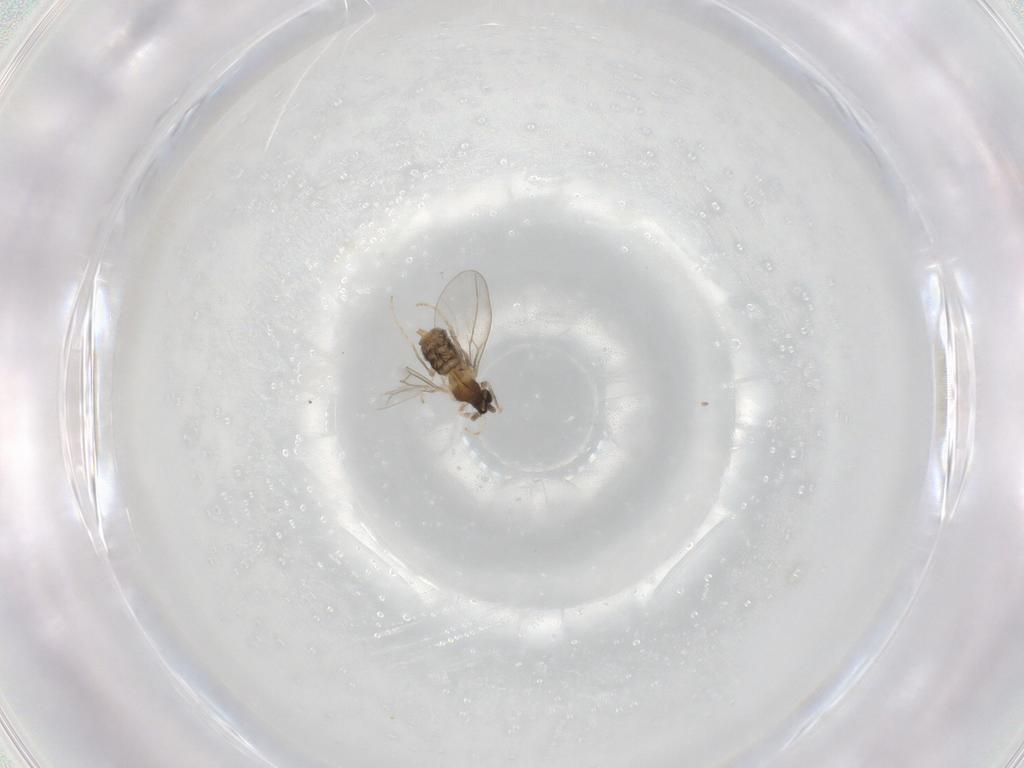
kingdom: Animalia
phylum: Arthropoda
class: Insecta
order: Diptera
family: Cecidomyiidae
